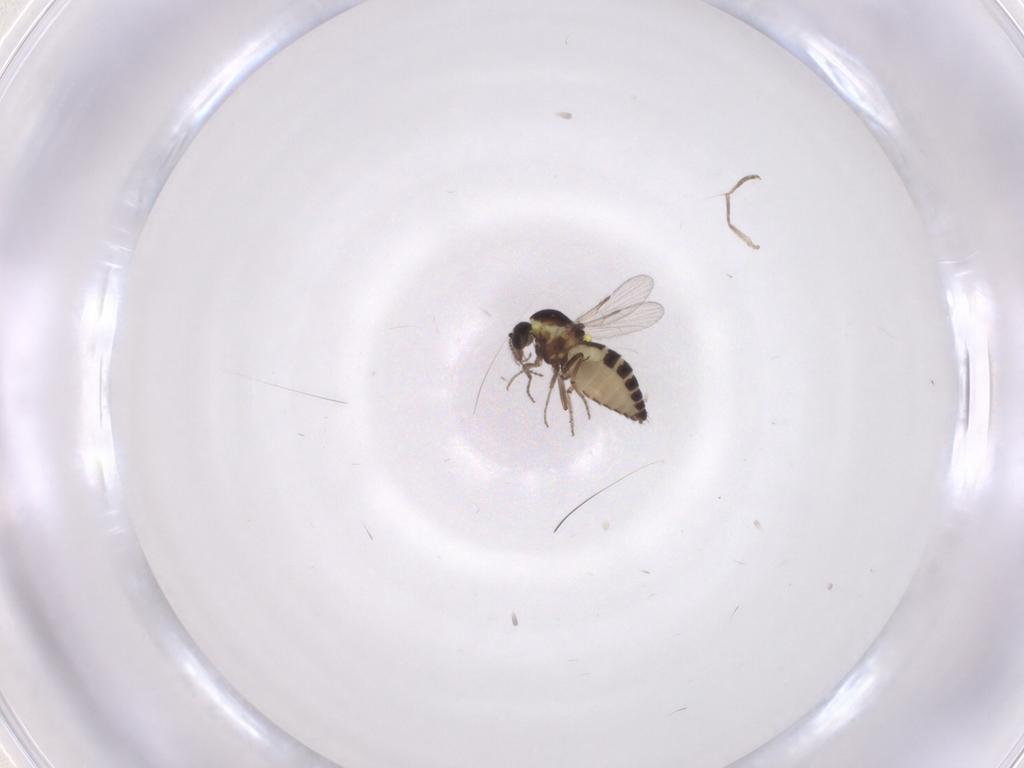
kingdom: Animalia
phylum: Arthropoda
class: Insecta
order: Diptera
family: Ceratopogonidae
